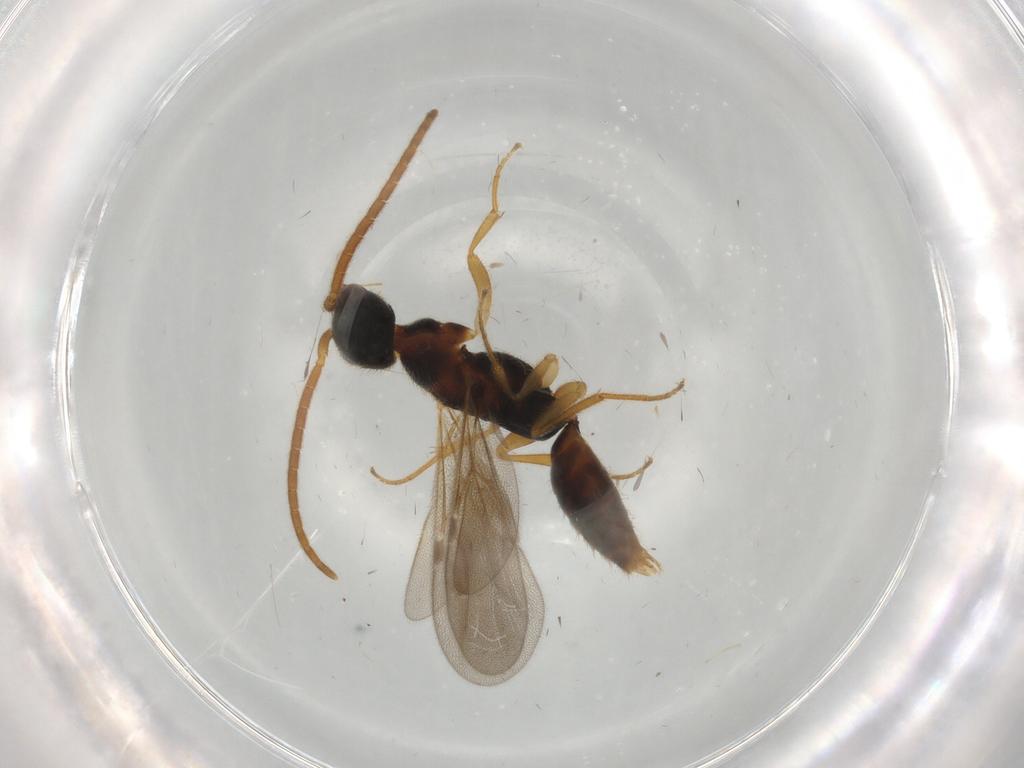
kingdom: Animalia
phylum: Arthropoda
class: Insecta
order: Hymenoptera
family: Bethylidae
